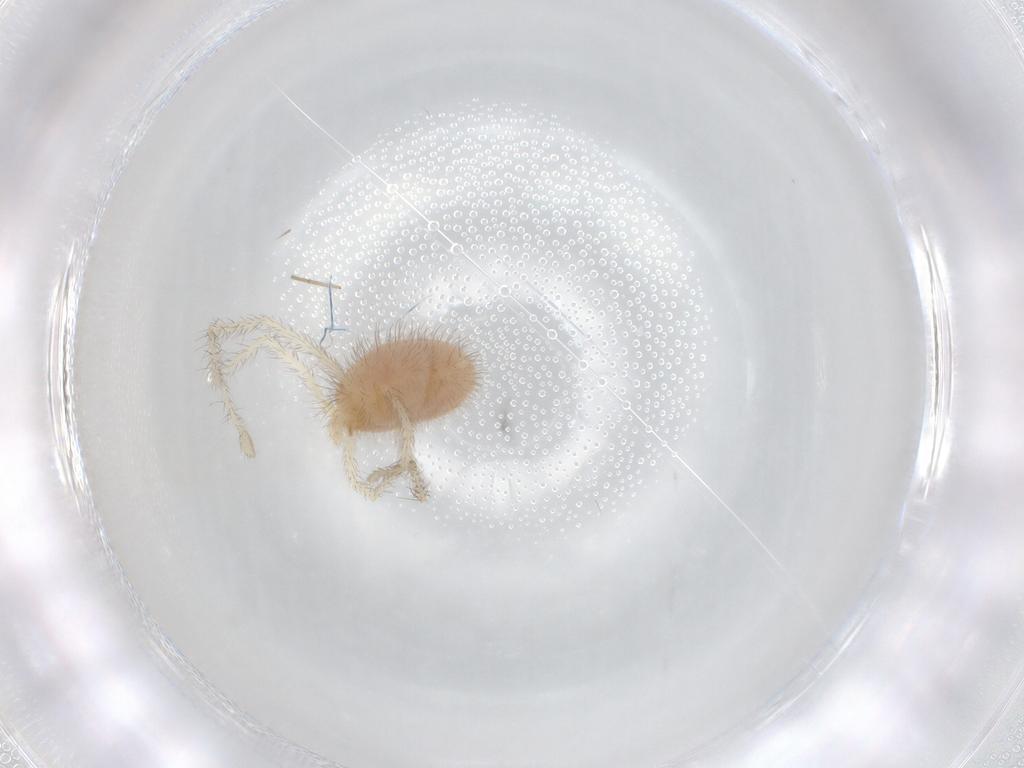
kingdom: Animalia
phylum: Arthropoda
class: Arachnida
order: Trombidiformes
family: Erythraeidae
